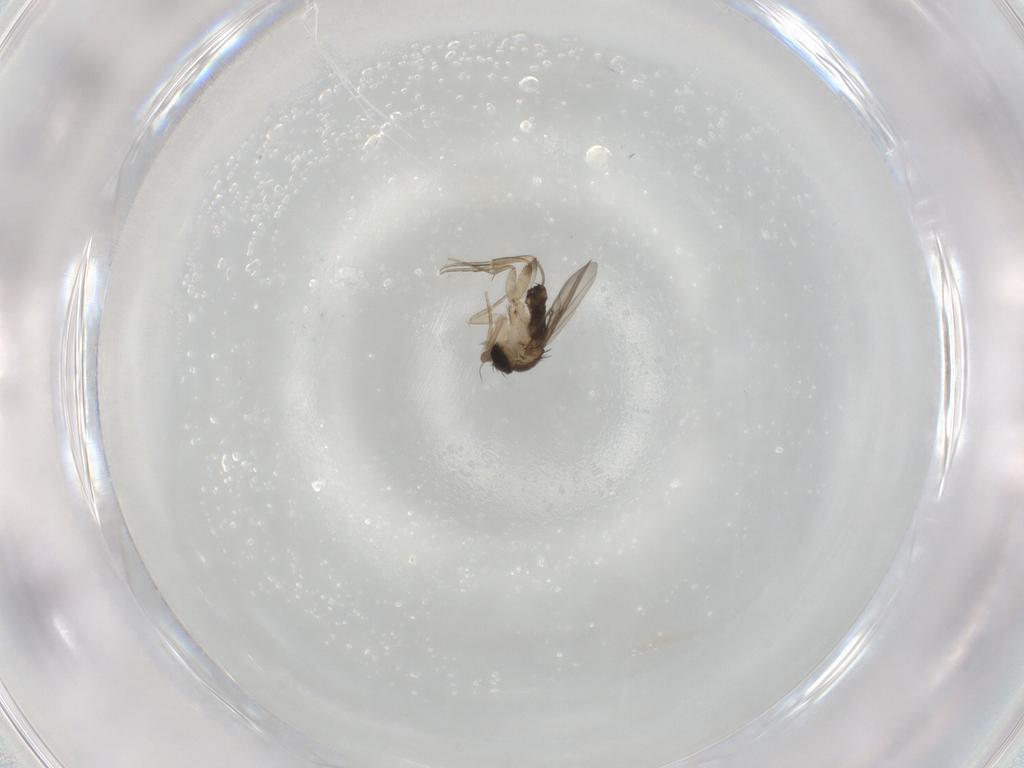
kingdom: Animalia
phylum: Arthropoda
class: Insecta
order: Diptera
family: Phoridae
